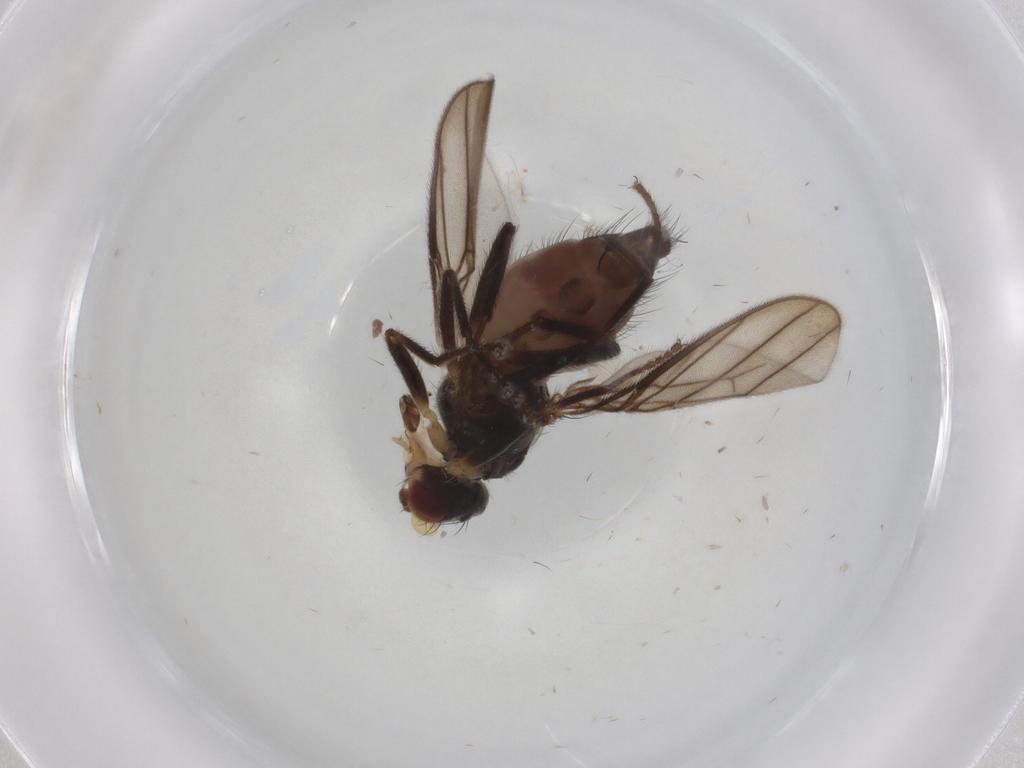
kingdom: Animalia
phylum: Arthropoda
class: Insecta
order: Diptera
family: Chloropidae
